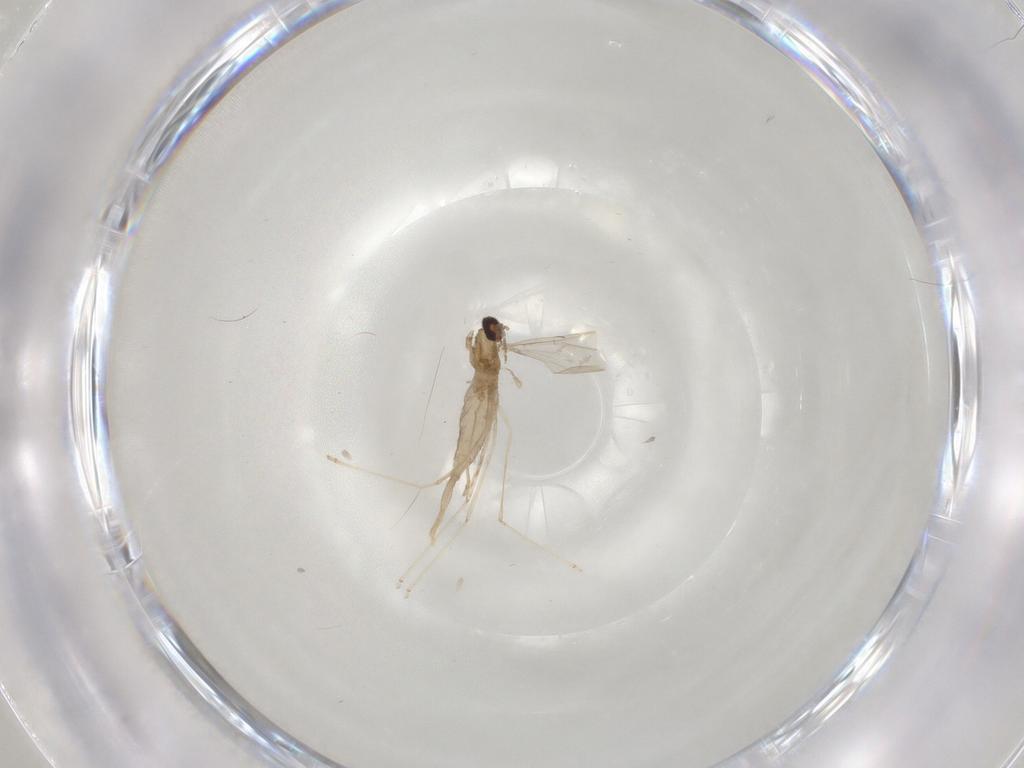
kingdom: Animalia
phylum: Arthropoda
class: Insecta
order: Diptera
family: Cecidomyiidae
